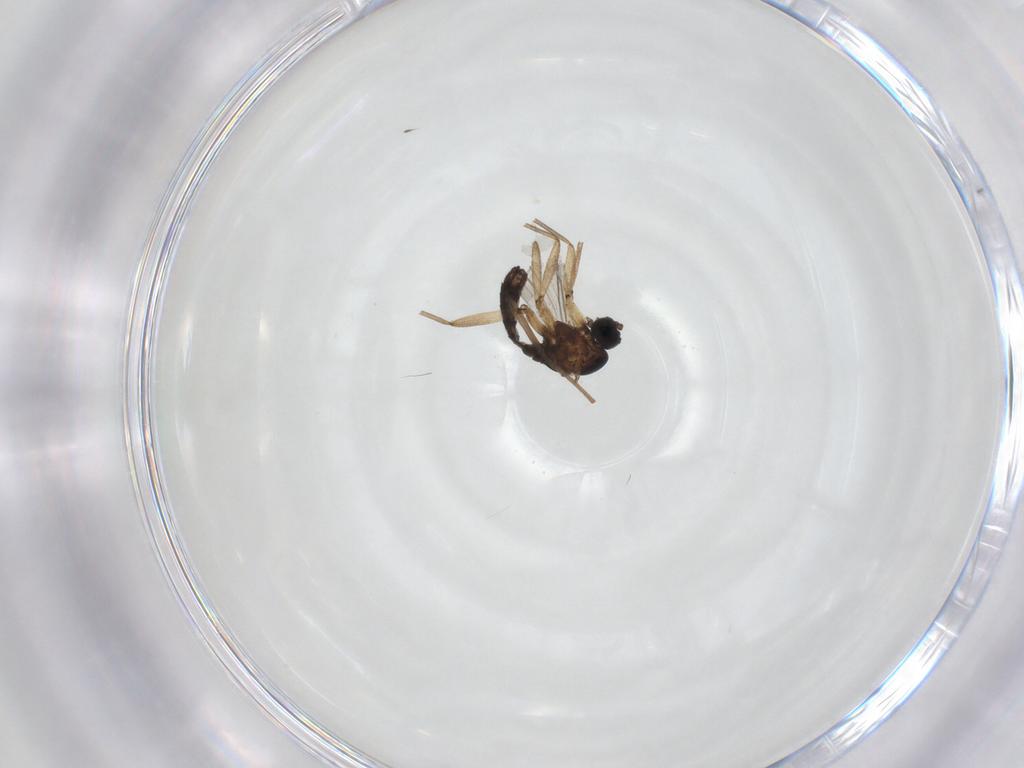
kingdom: Animalia
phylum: Arthropoda
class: Insecta
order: Diptera
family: Sciaridae
